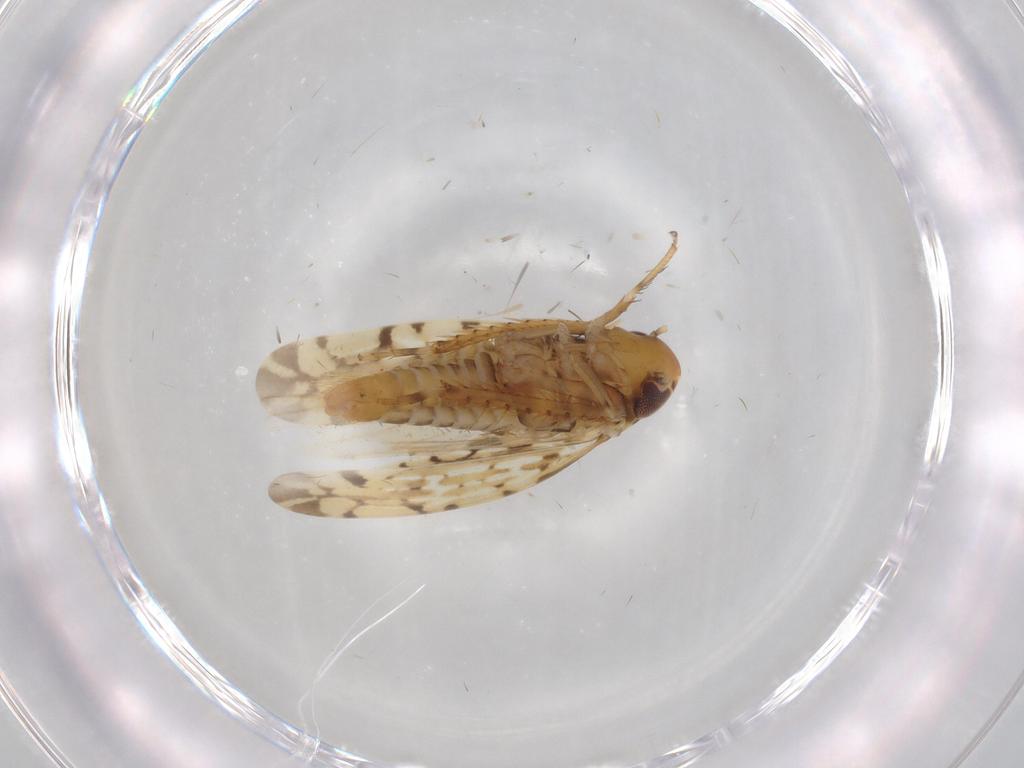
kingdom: Animalia
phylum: Arthropoda
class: Insecta
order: Hemiptera
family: Cicadellidae
